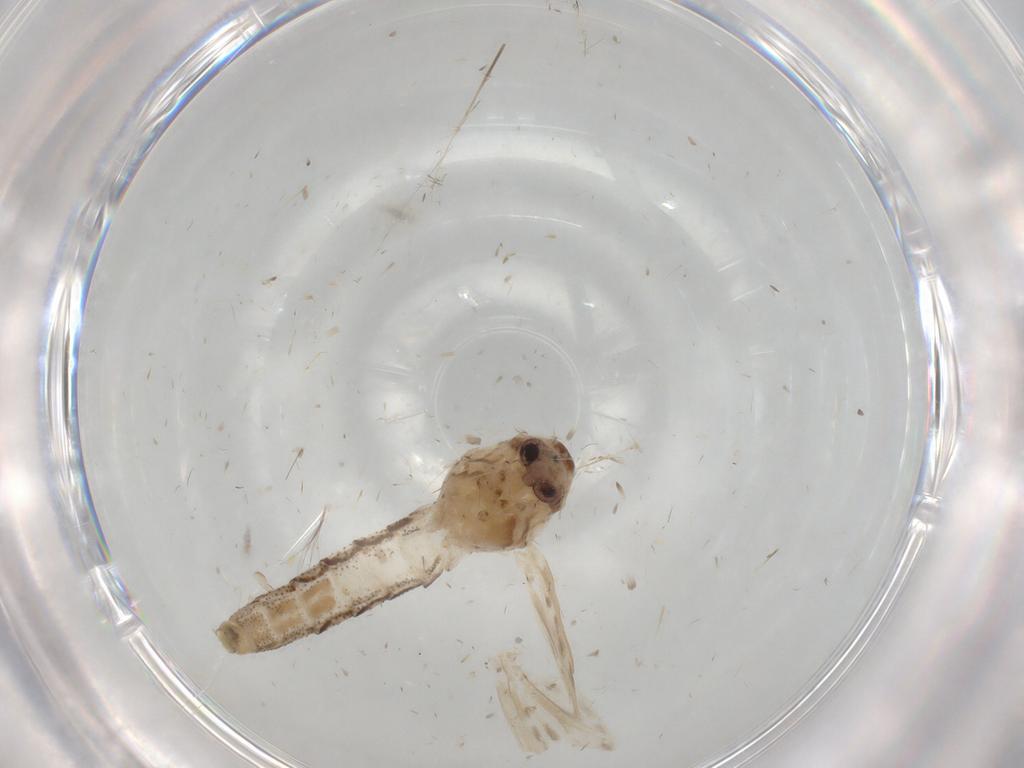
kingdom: Animalia
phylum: Arthropoda
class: Insecta
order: Diptera
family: Chaoboridae
